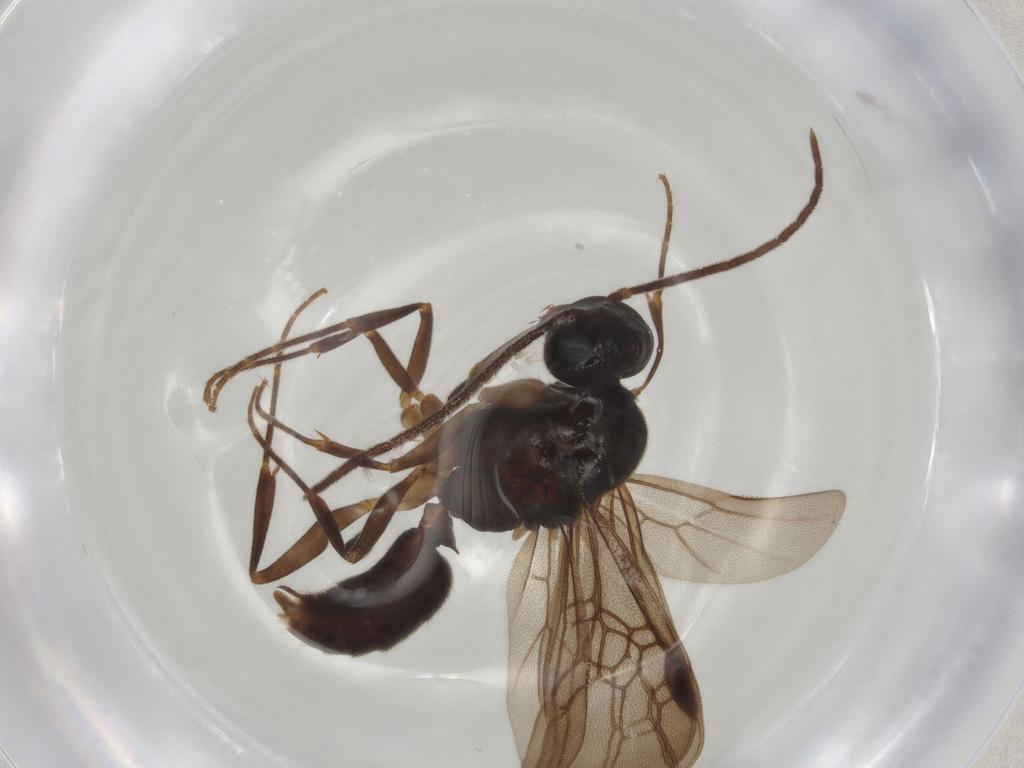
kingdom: Animalia
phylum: Arthropoda
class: Insecta
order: Hymenoptera
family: Formicidae
